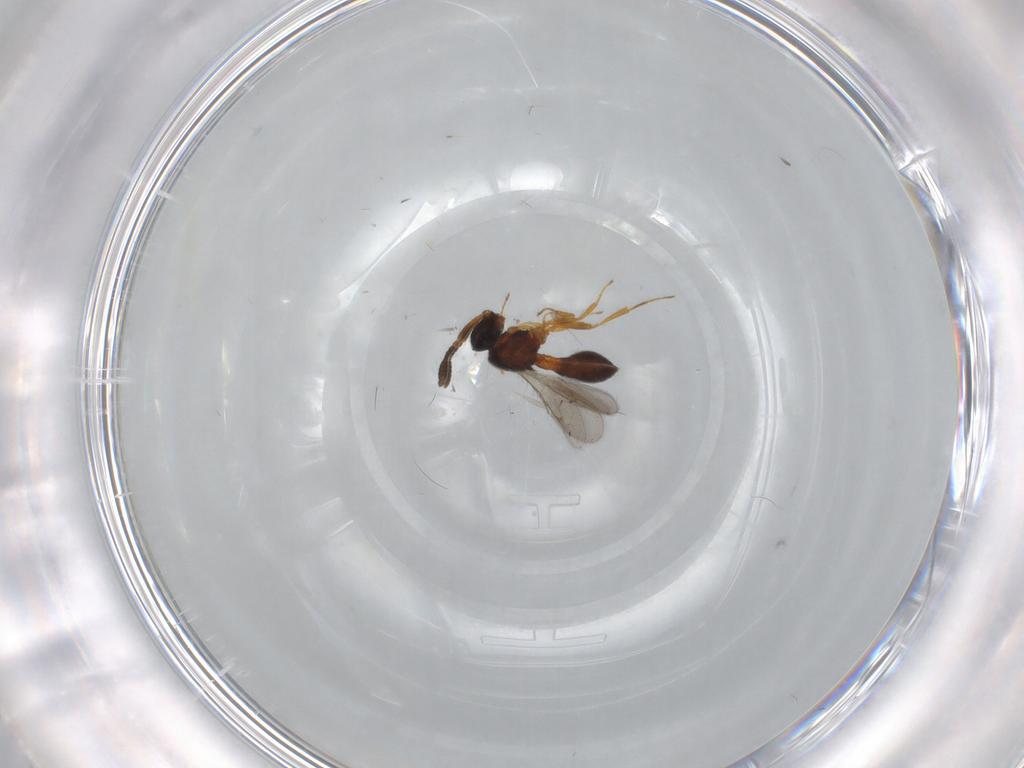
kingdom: Animalia
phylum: Arthropoda
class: Insecta
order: Hymenoptera
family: Scelionidae
